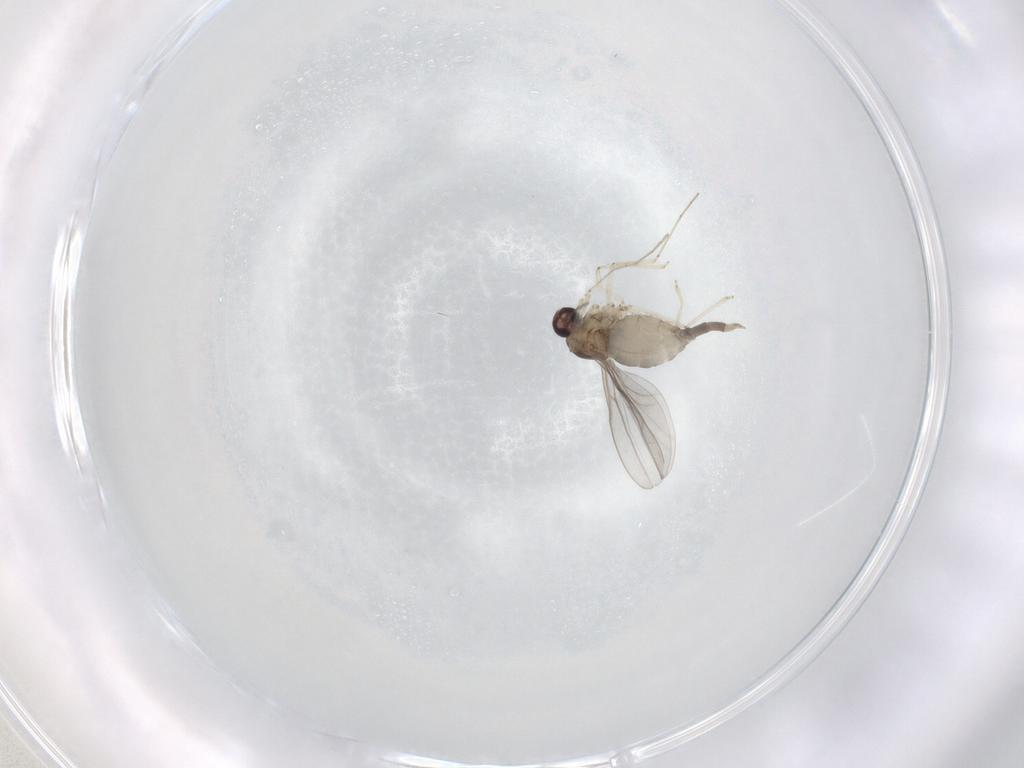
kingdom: Animalia
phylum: Arthropoda
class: Insecta
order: Diptera
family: Cecidomyiidae
